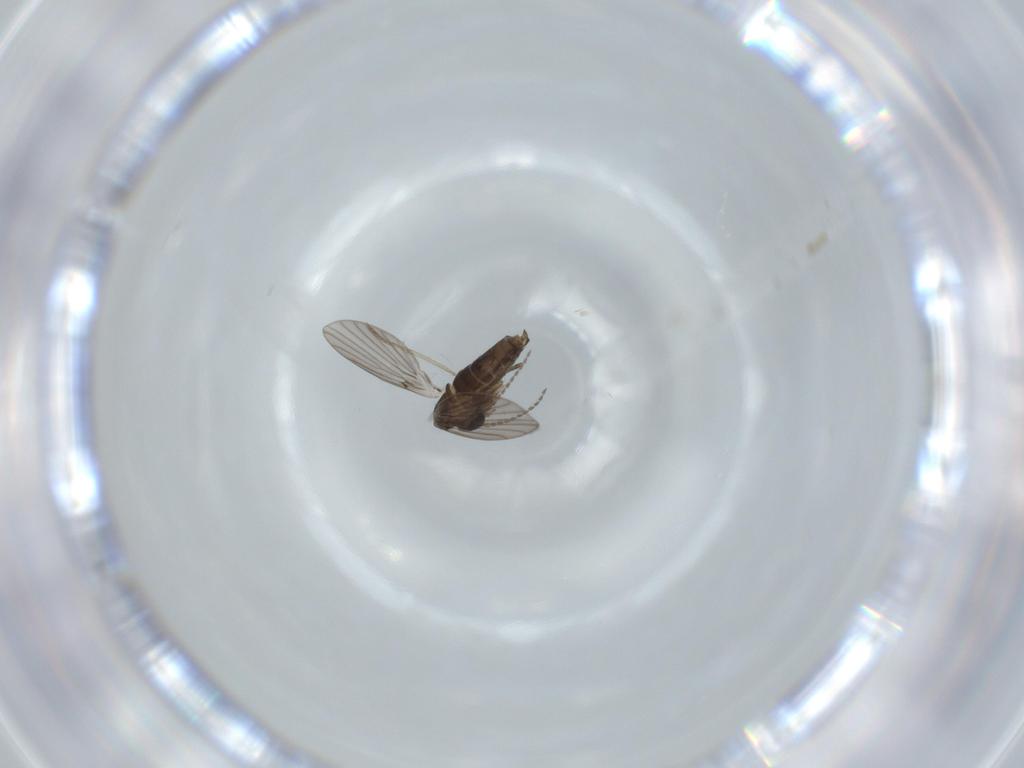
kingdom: Animalia
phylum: Arthropoda
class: Insecta
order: Diptera
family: Psychodidae
